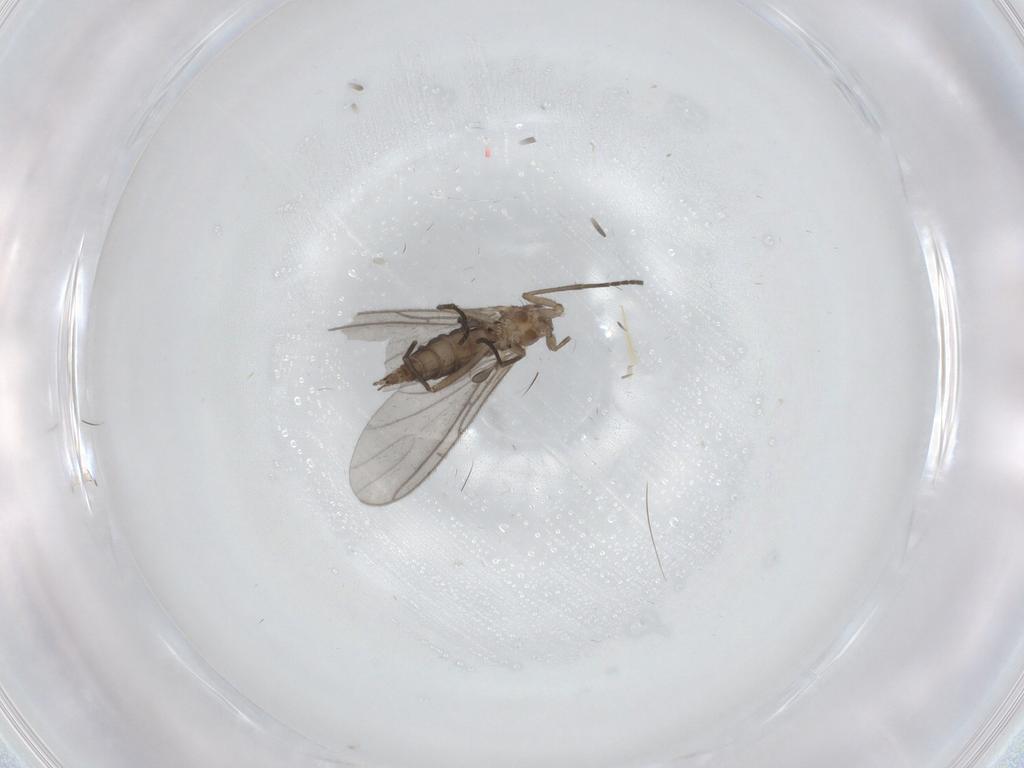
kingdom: Animalia
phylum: Arthropoda
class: Insecta
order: Diptera
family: Sciaridae
